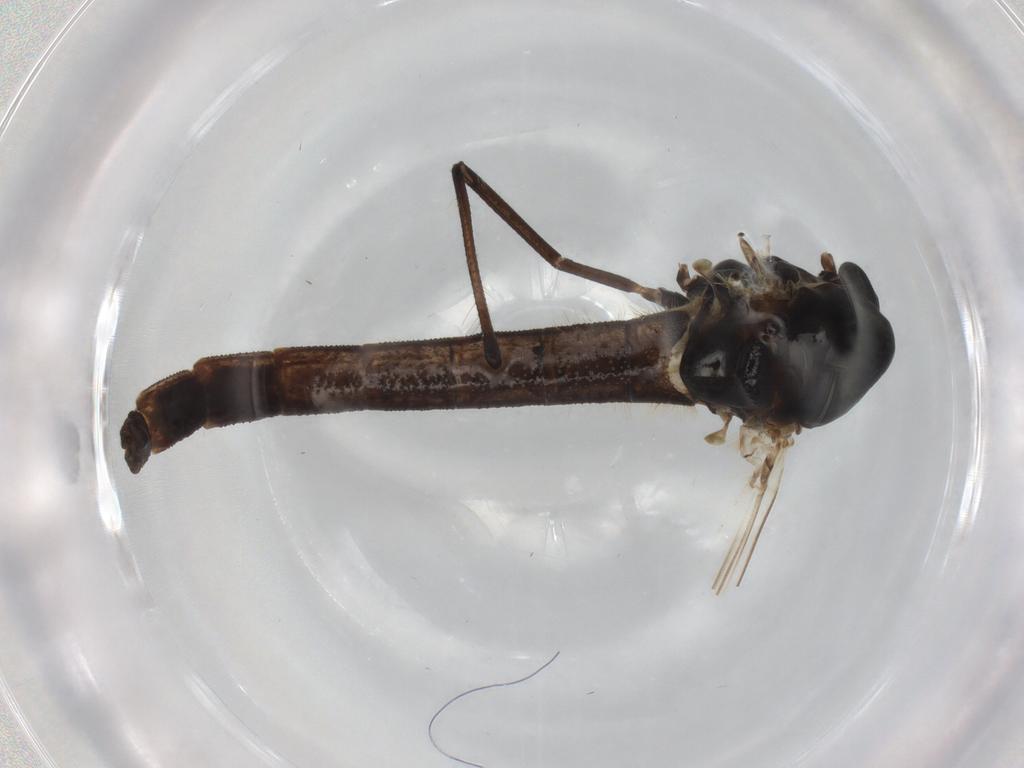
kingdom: Animalia
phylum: Arthropoda
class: Insecta
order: Diptera
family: Chironomidae
